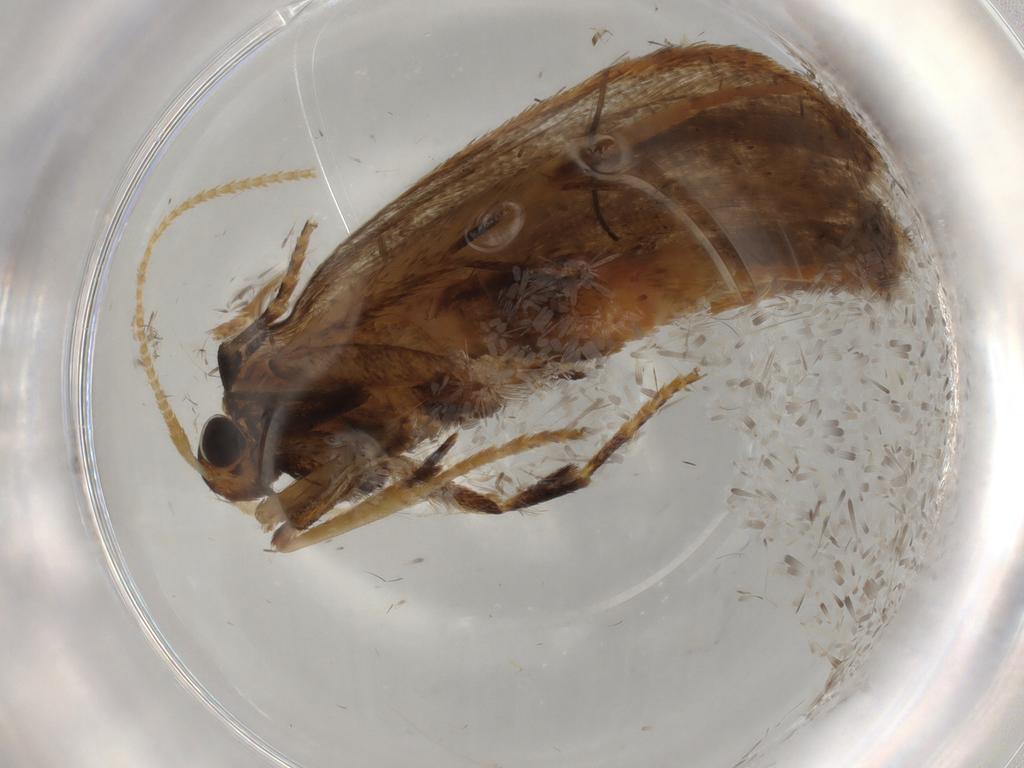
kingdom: Animalia
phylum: Arthropoda
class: Insecta
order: Lepidoptera
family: Lecithoceridae
